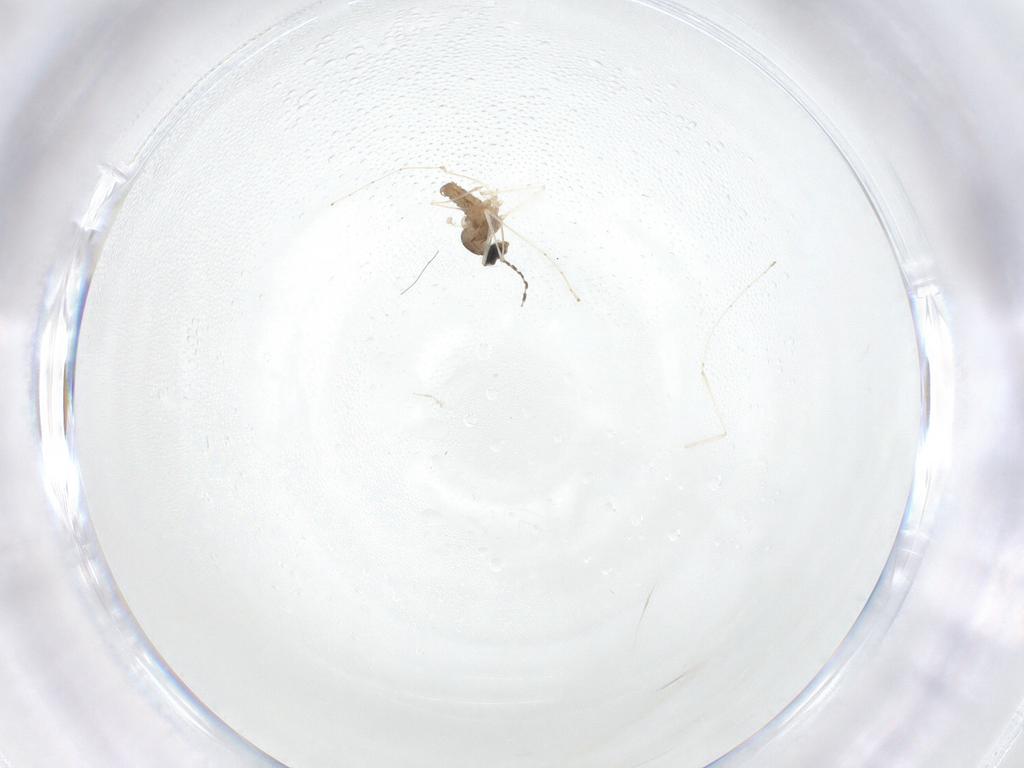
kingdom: Animalia
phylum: Arthropoda
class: Insecta
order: Diptera
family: Cecidomyiidae
